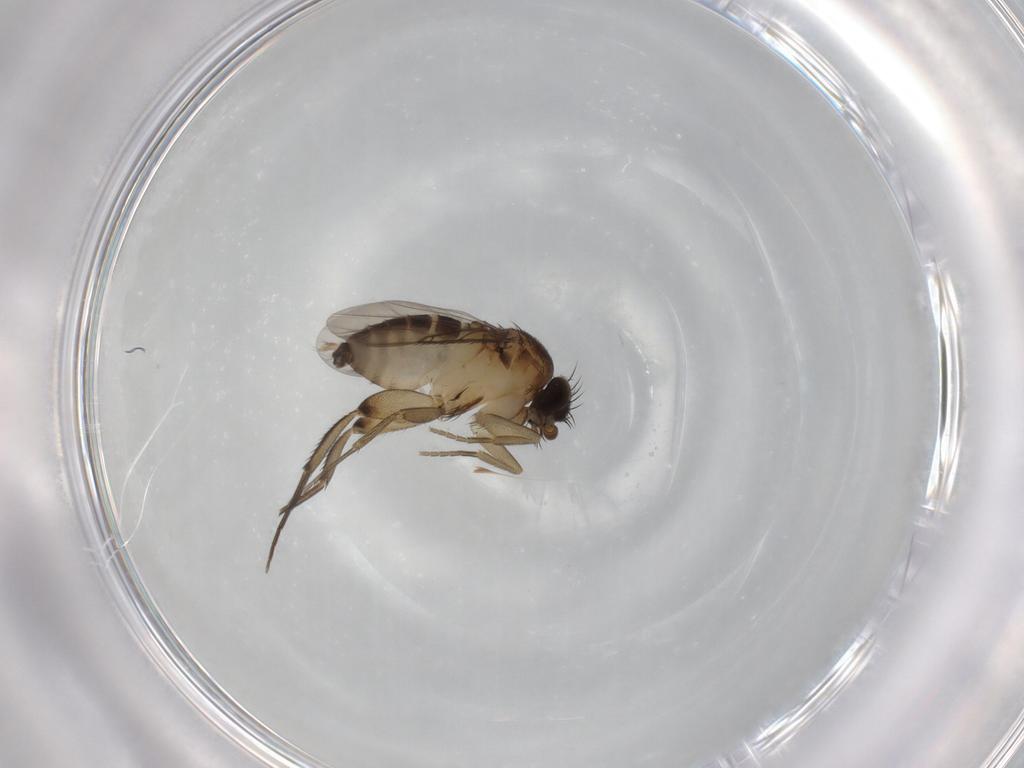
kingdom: Animalia
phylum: Arthropoda
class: Insecta
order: Diptera
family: Phoridae
